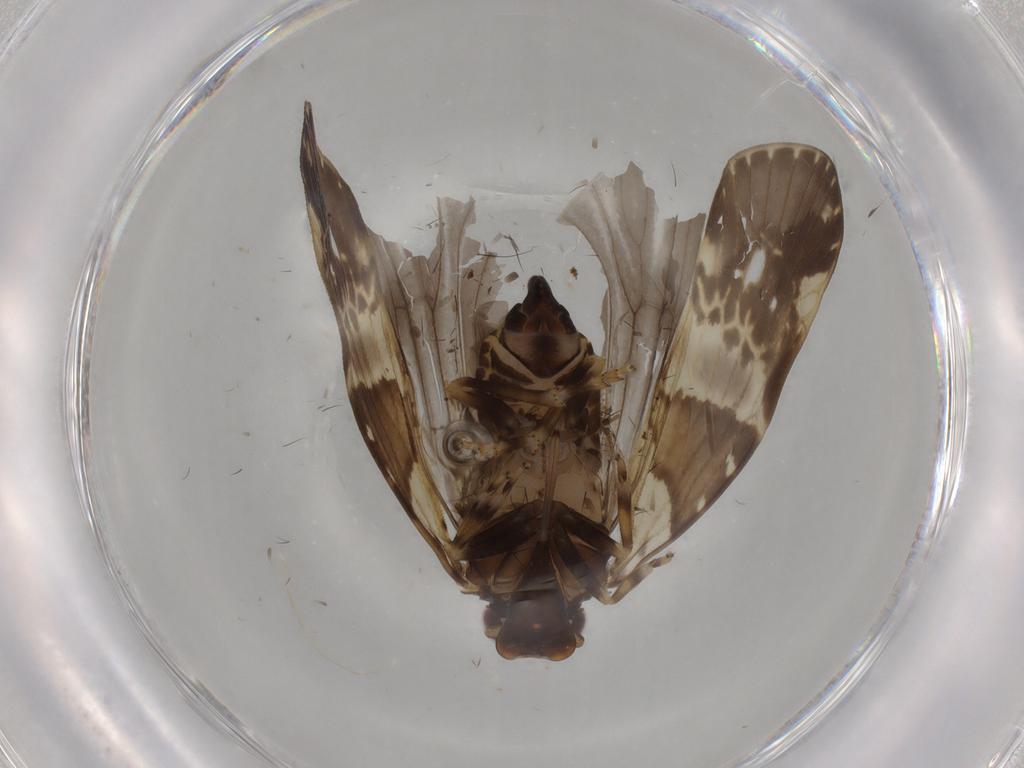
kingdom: Animalia
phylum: Arthropoda
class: Insecta
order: Hemiptera
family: Cixiidae
